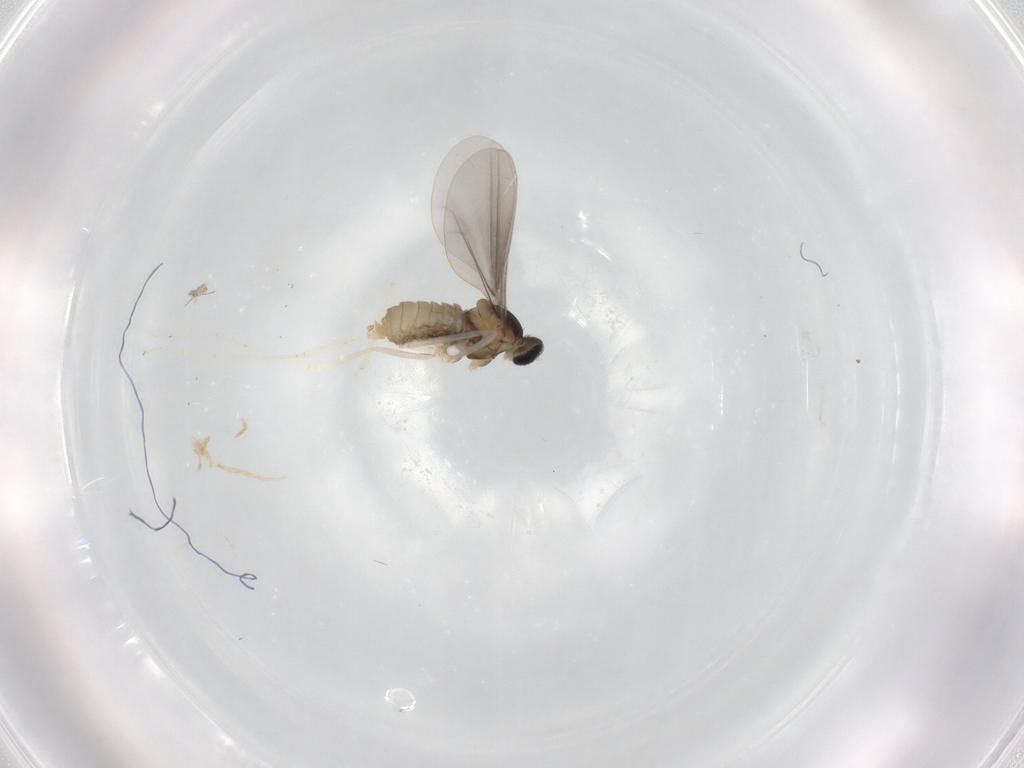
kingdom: Animalia
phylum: Arthropoda
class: Insecta
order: Diptera
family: Cecidomyiidae
